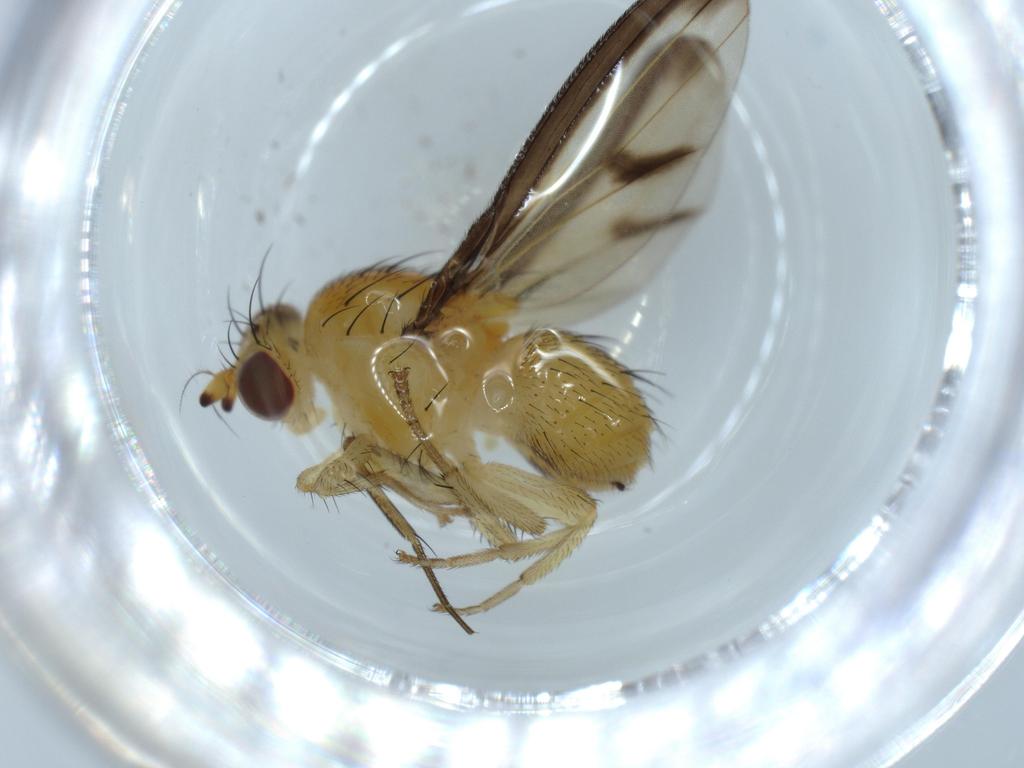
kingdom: Animalia
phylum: Arthropoda
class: Insecta
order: Diptera
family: Lauxaniidae
